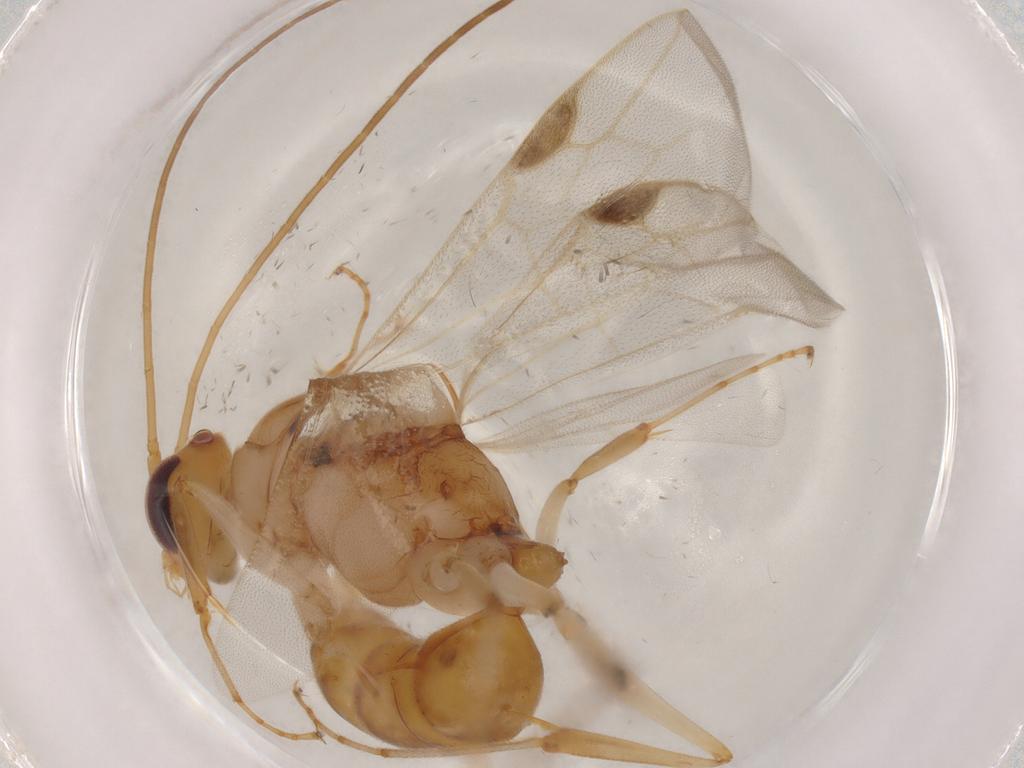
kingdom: Animalia
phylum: Arthropoda
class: Insecta
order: Hymenoptera
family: Formicidae
